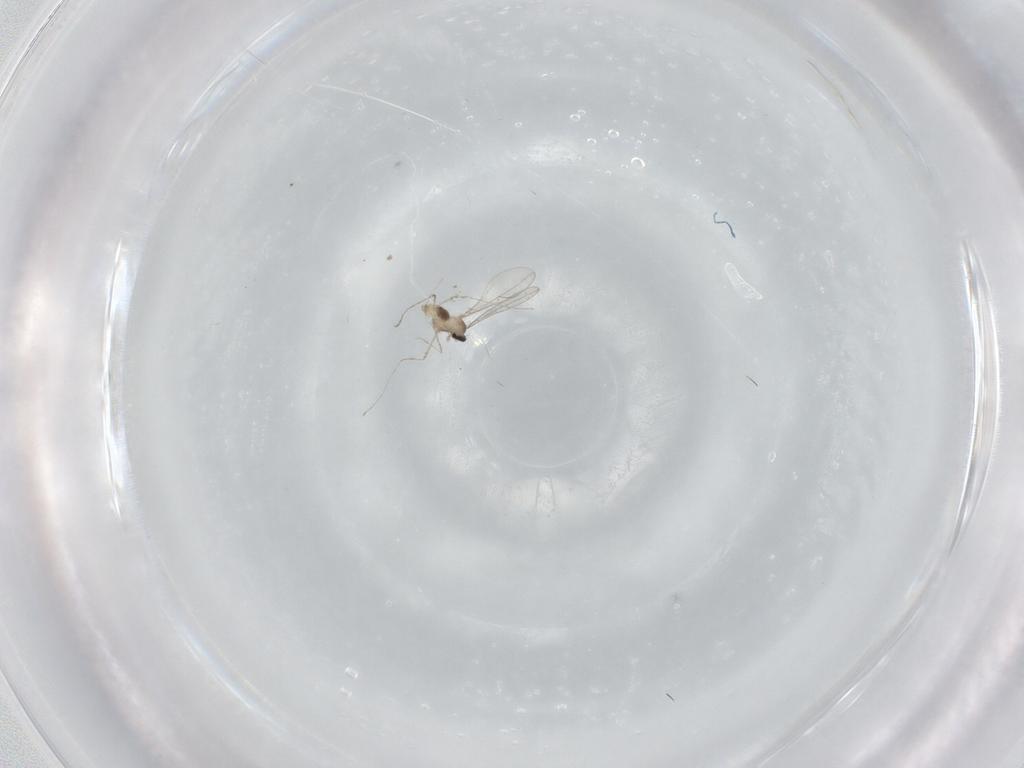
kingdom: Animalia
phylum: Arthropoda
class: Insecta
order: Diptera
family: Cecidomyiidae
